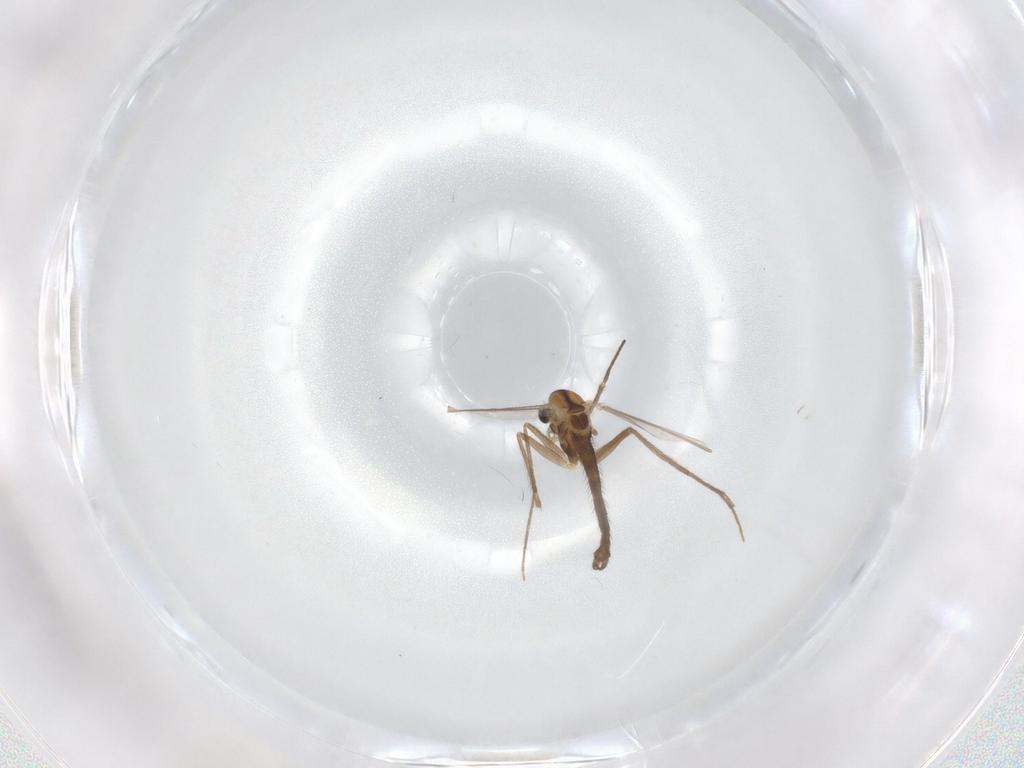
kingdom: Animalia
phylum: Arthropoda
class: Insecta
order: Diptera
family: Chironomidae
